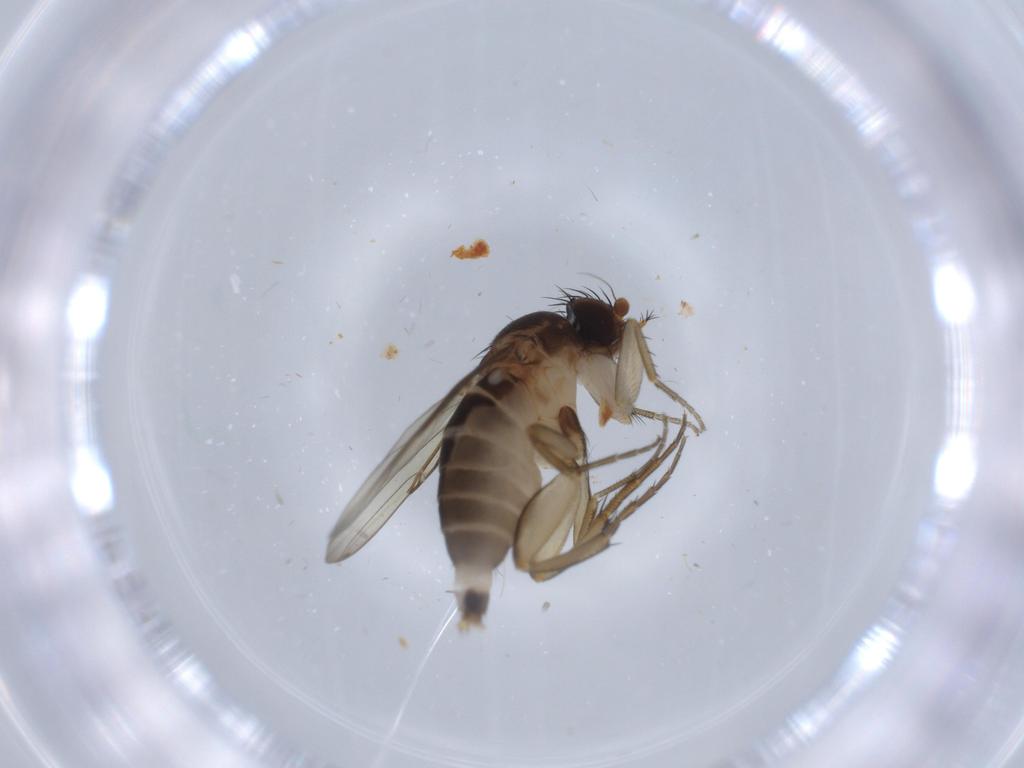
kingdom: Animalia
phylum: Arthropoda
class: Insecta
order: Diptera
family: Phoridae
